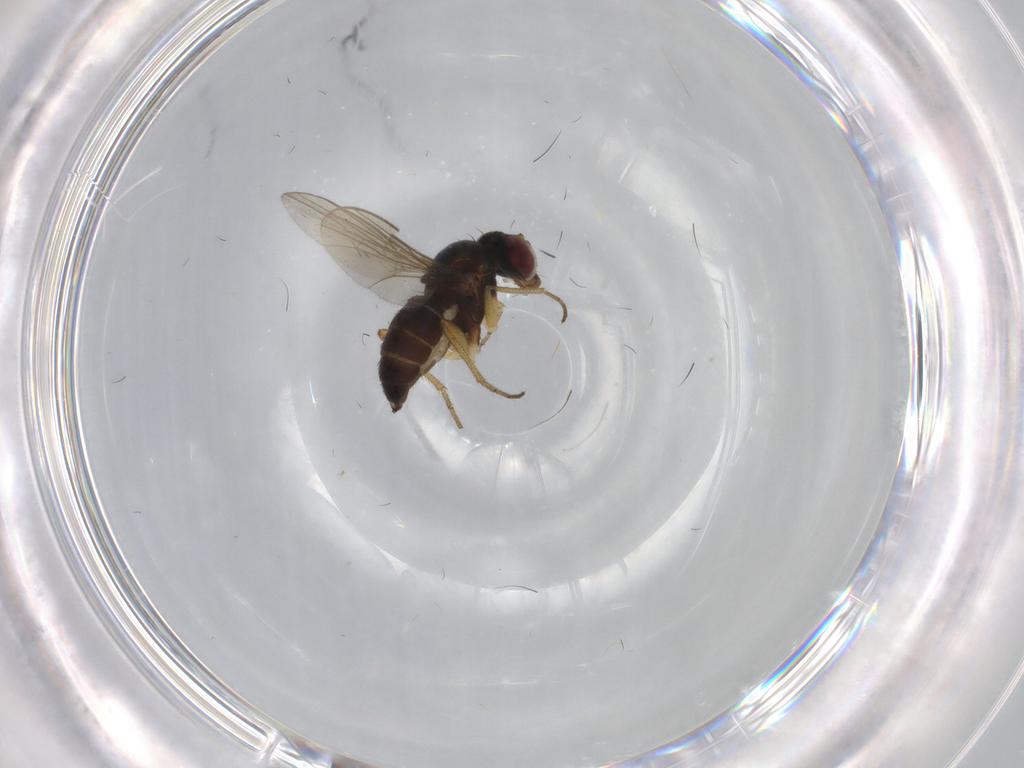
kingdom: Animalia
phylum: Arthropoda
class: Insecta
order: Diptera
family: Dolichopodidae
